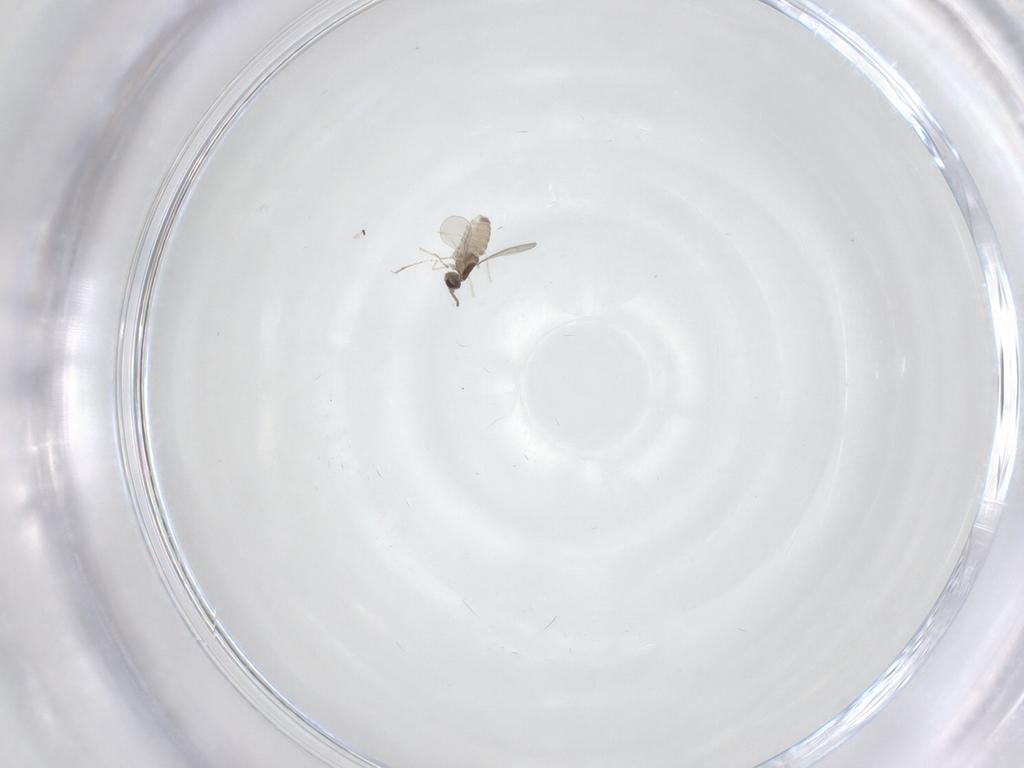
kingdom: Animalia
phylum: Arthropoda
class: Insecta
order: Diptera
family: Cecidomyiidae
